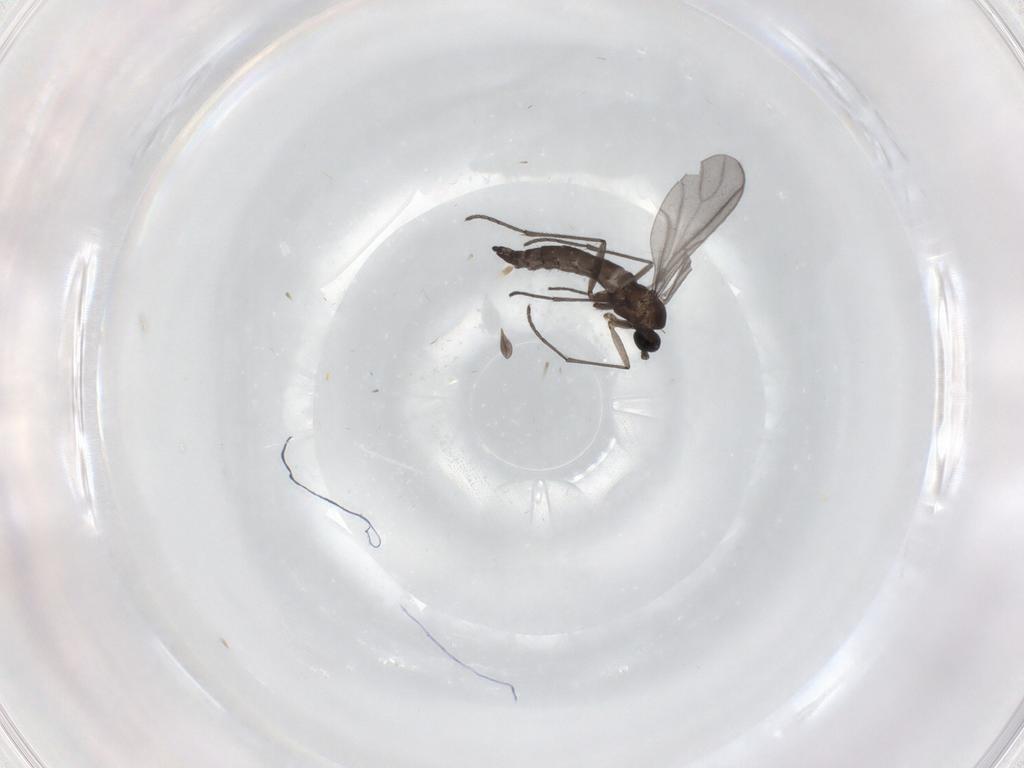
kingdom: Animalia
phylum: Arthropoda
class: Insecta
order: Diptera
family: Sciaridae
